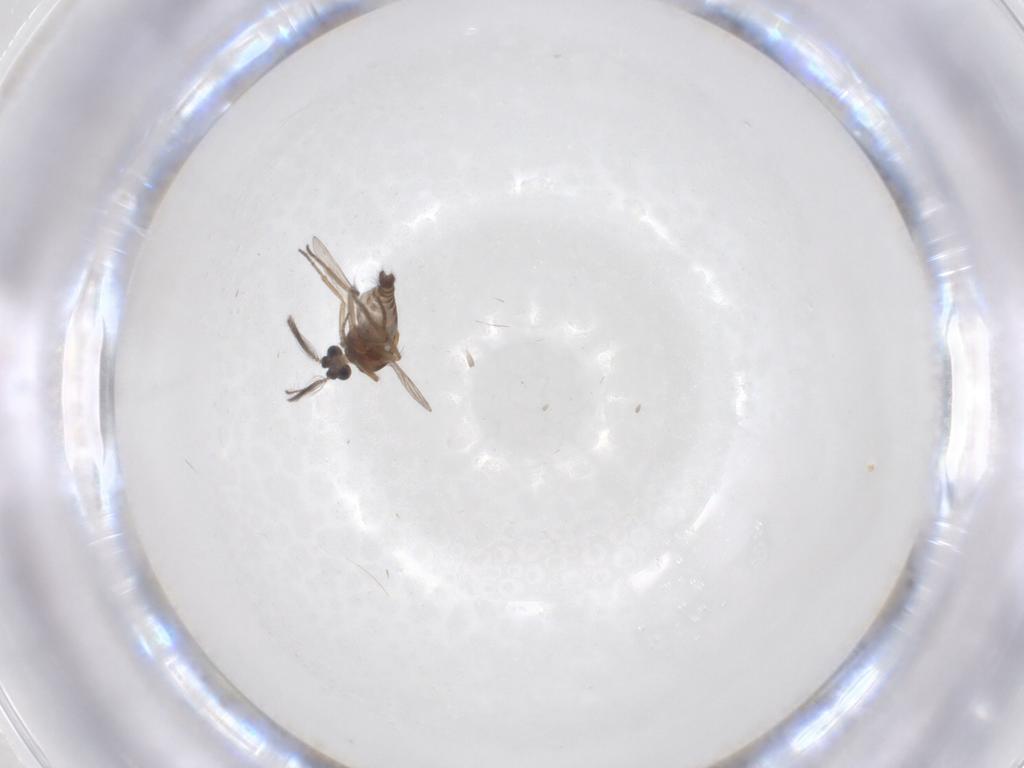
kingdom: Animalia
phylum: Arthropoda
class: Insecta
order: Diptera
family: Ceratopogonidae
